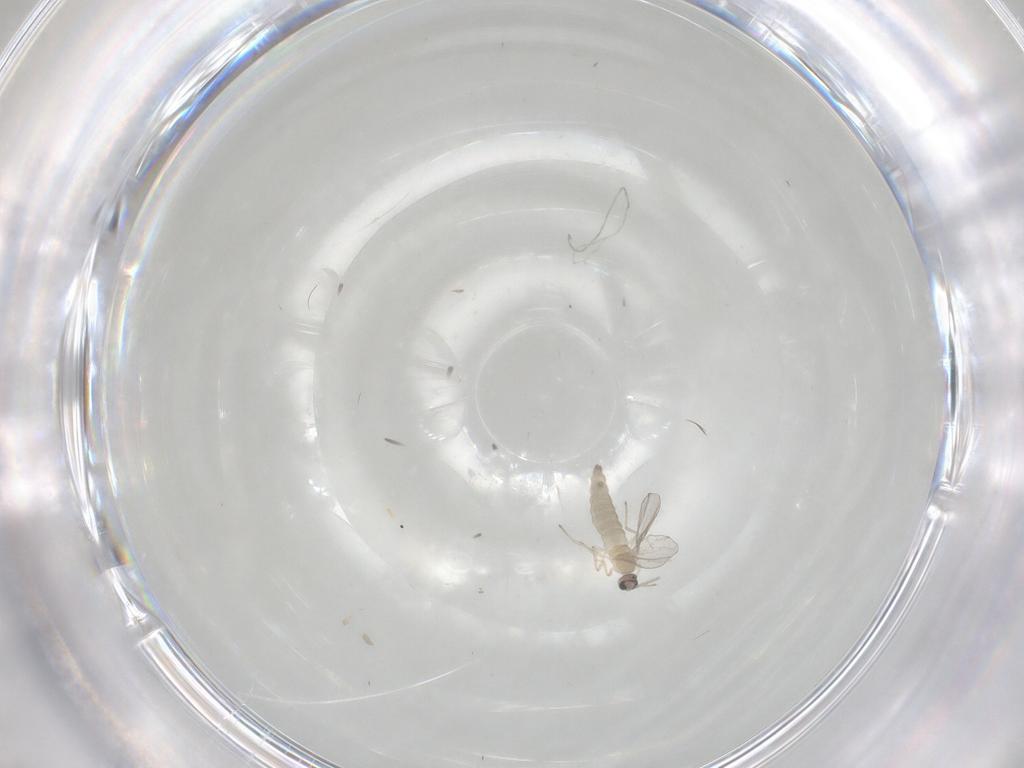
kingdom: Animalia
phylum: Arthropoda
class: Insecta
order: Diptera
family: Cecidomyiidae
